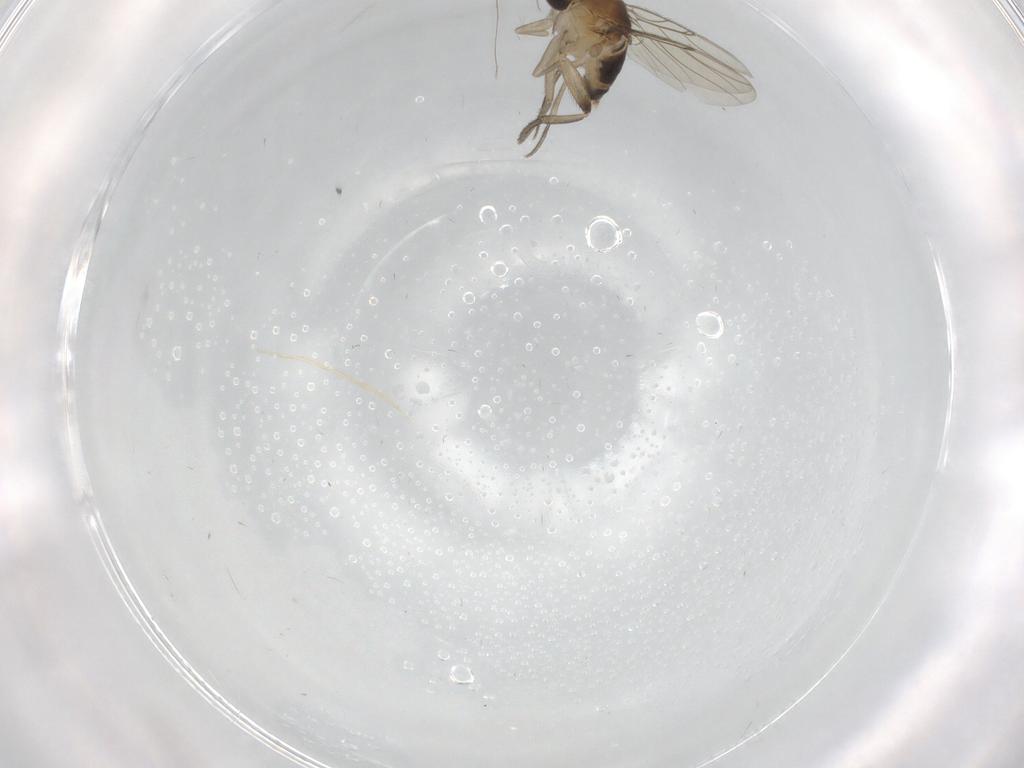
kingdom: Animalia
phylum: Arthropoda
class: Insecta
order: Diptera
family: Phoridae
